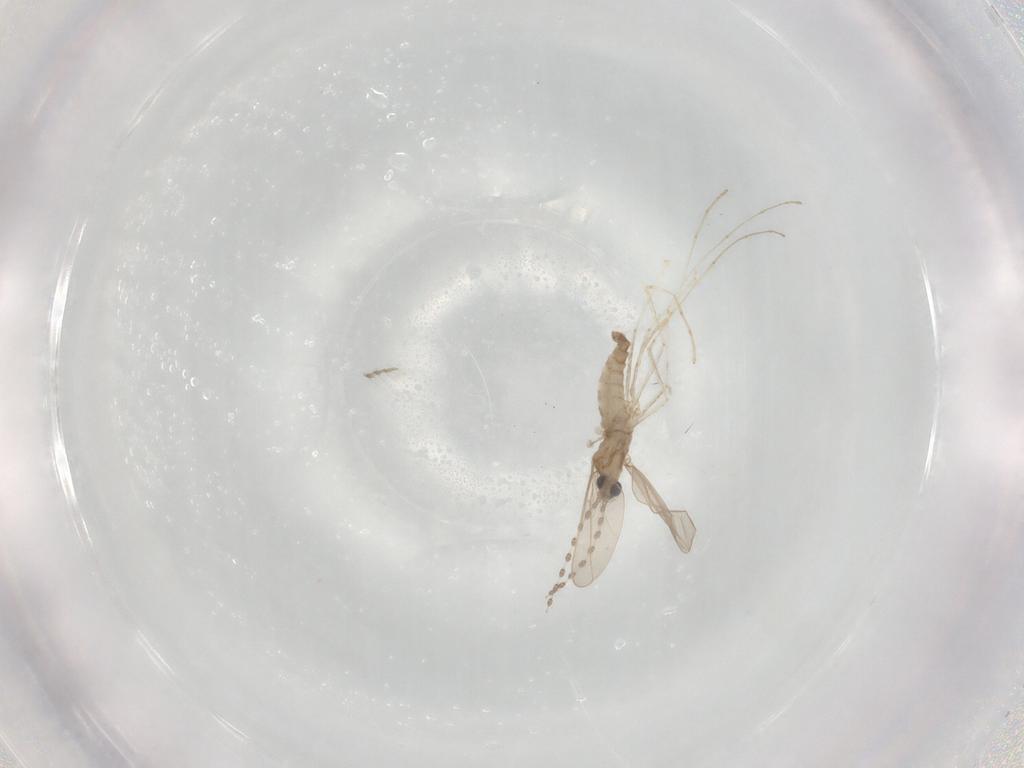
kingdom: Animalia
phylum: Arthropoda
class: Insecta
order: Diptera
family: Cecidomyiidae
